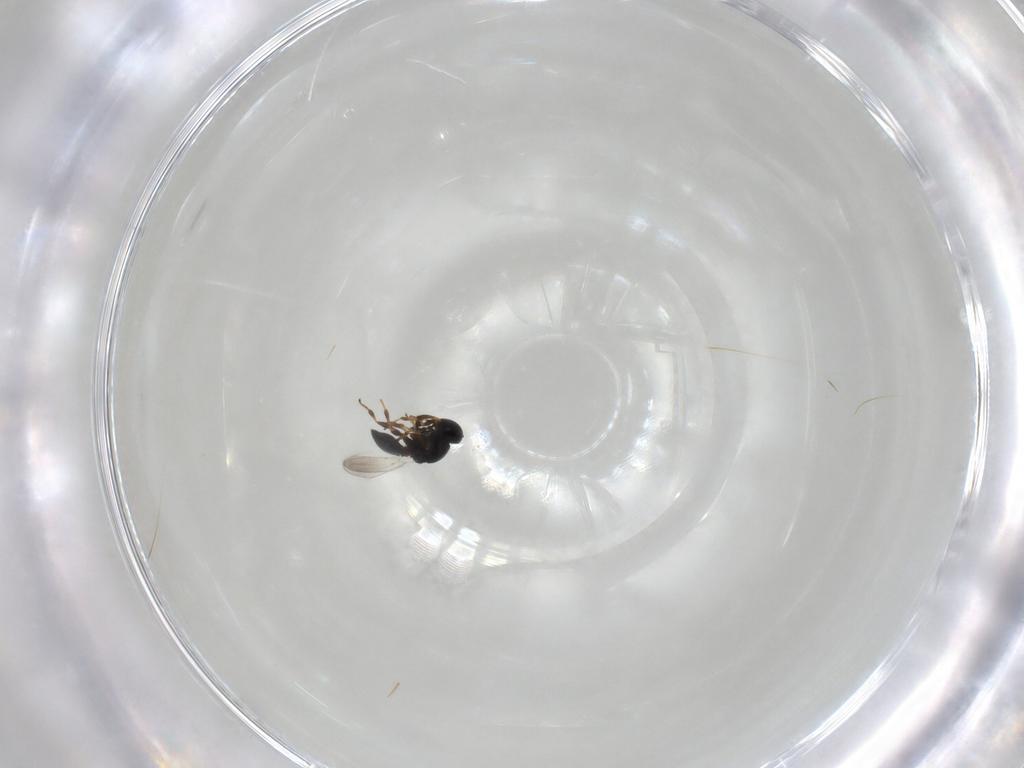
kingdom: Animalia
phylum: Arthropoda
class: Insecta
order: Hymenoptera
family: Platygastridae
